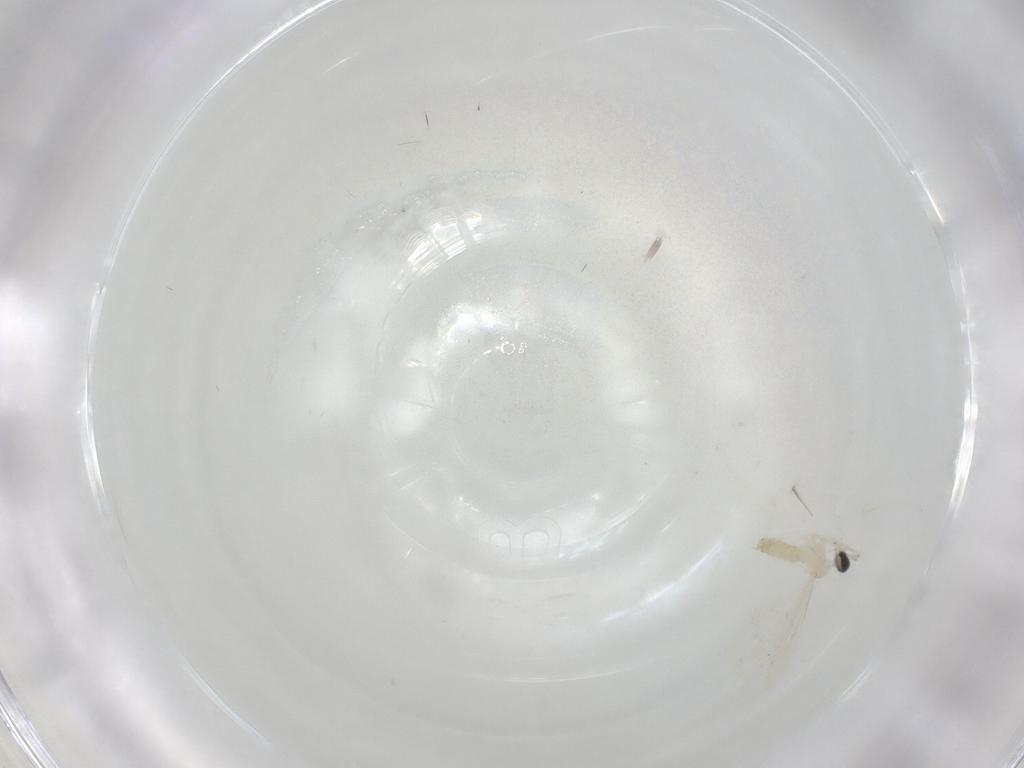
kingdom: Animalia
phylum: Arthropoda
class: Insecta
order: Diptera
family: Cecidomyiidae
